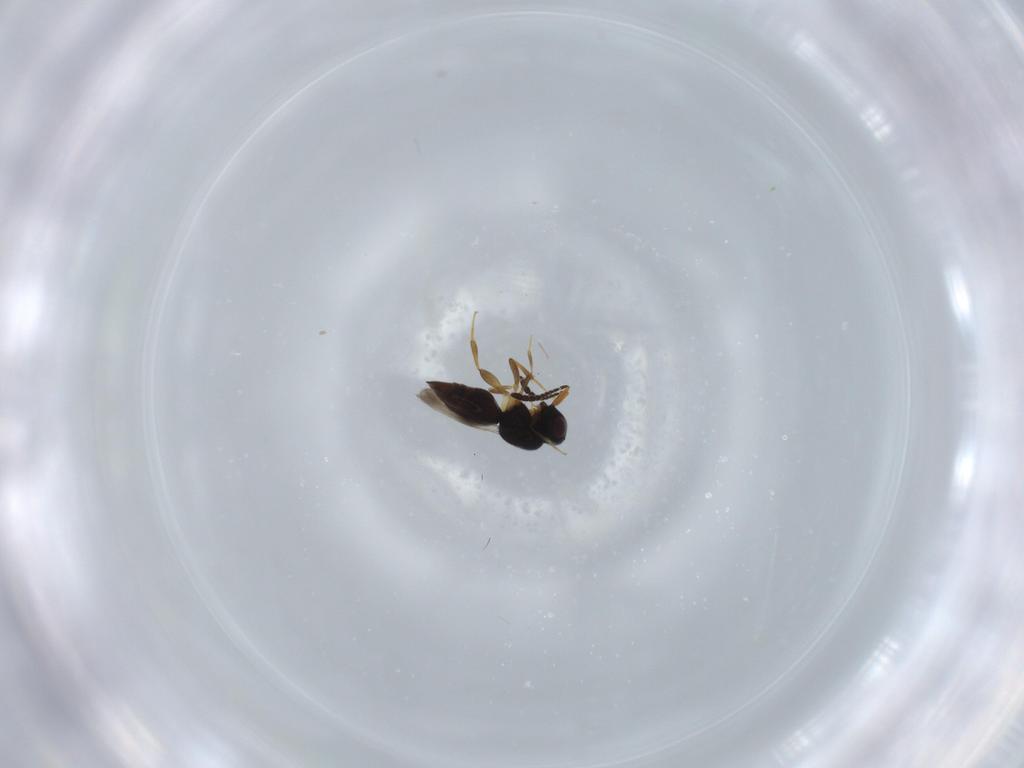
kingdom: Animalia
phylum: Arthropoda
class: Insecta
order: Hymenoptera
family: Ceraphronidae
